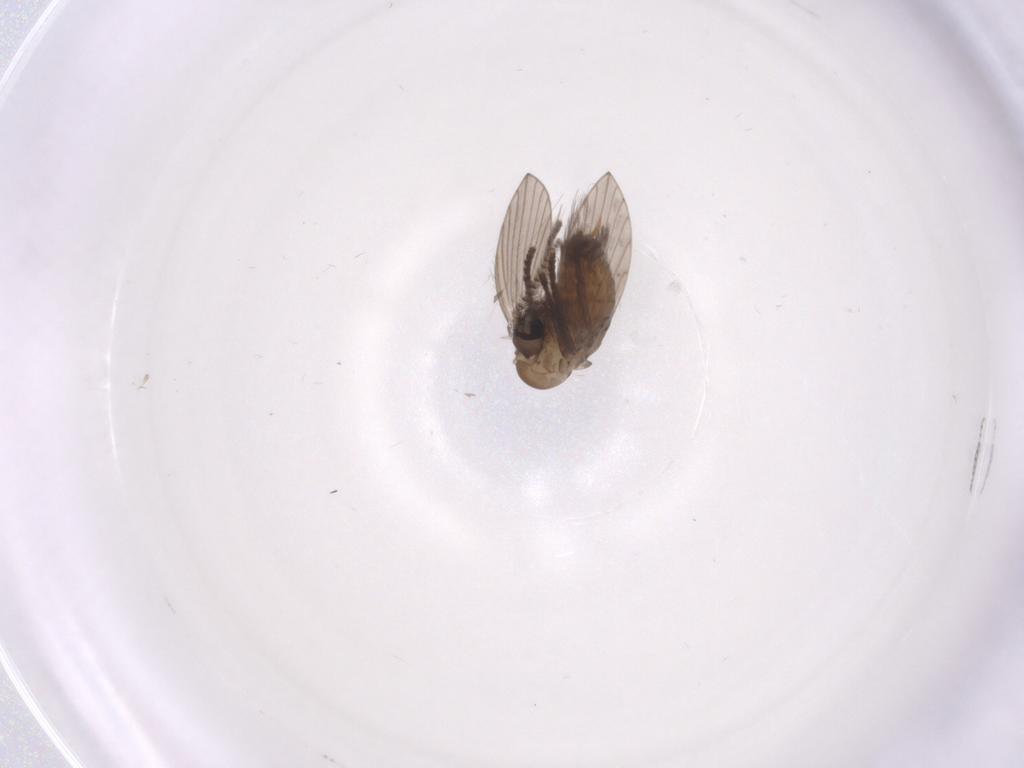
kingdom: Animalia
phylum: Arthropoda
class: Insecta
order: Diptera
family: Psychodidae
